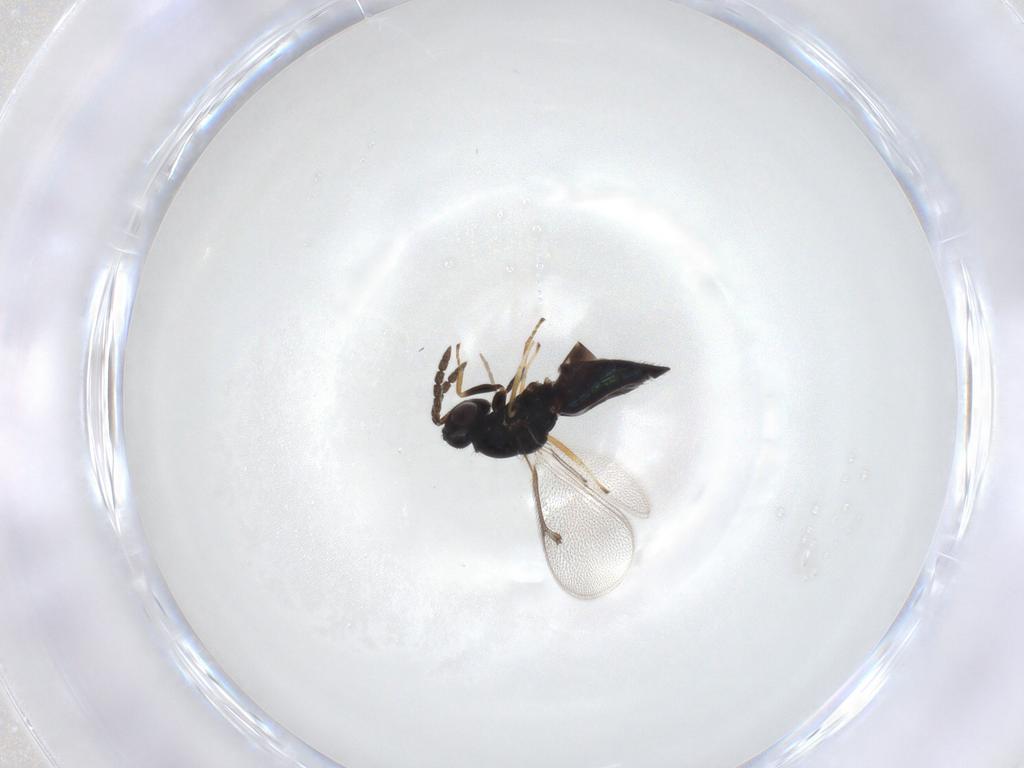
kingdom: Animalia
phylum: Arthropoda
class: Insecta
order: Hymenoptera
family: Eulophidae
